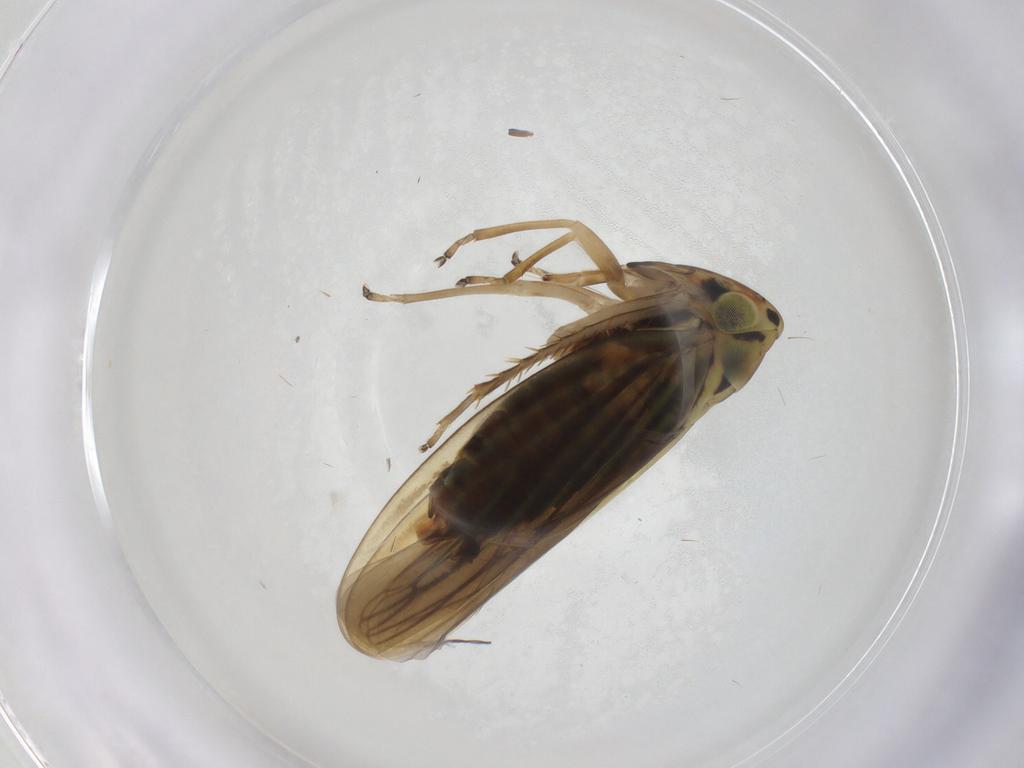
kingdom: Animalia
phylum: Arthropoda
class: Insecta
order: Hemiptera
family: Cicadellidae
